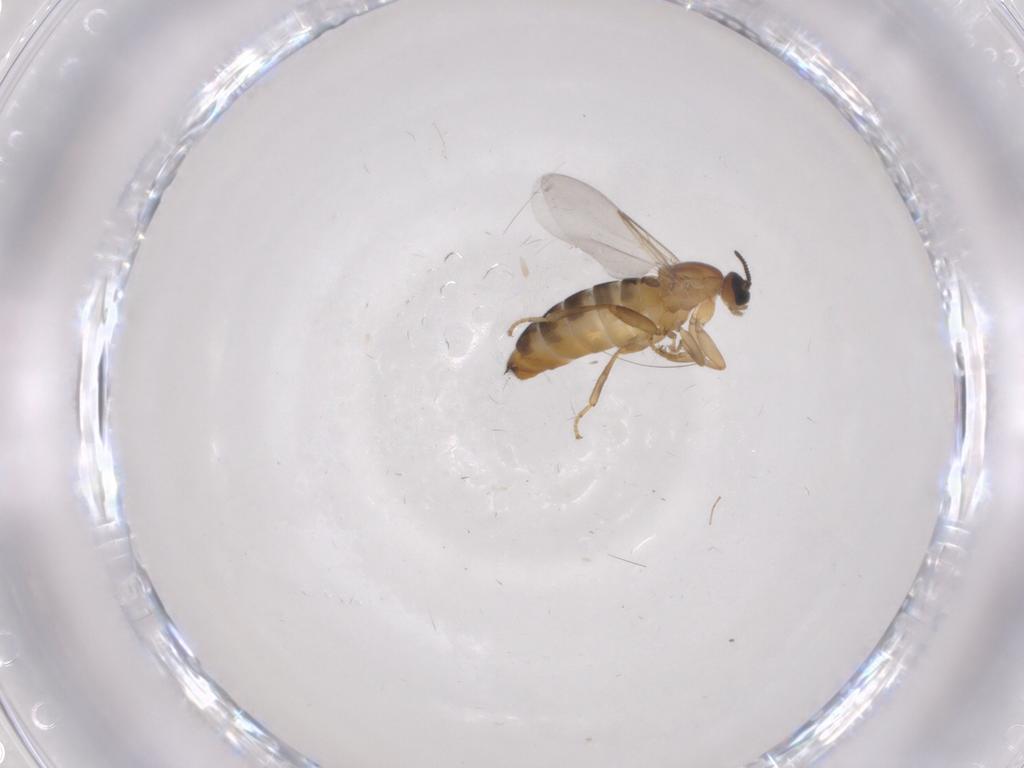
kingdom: Animalia
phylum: Arthropoda
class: Insecta
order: Diptera
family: Scatopsidae
